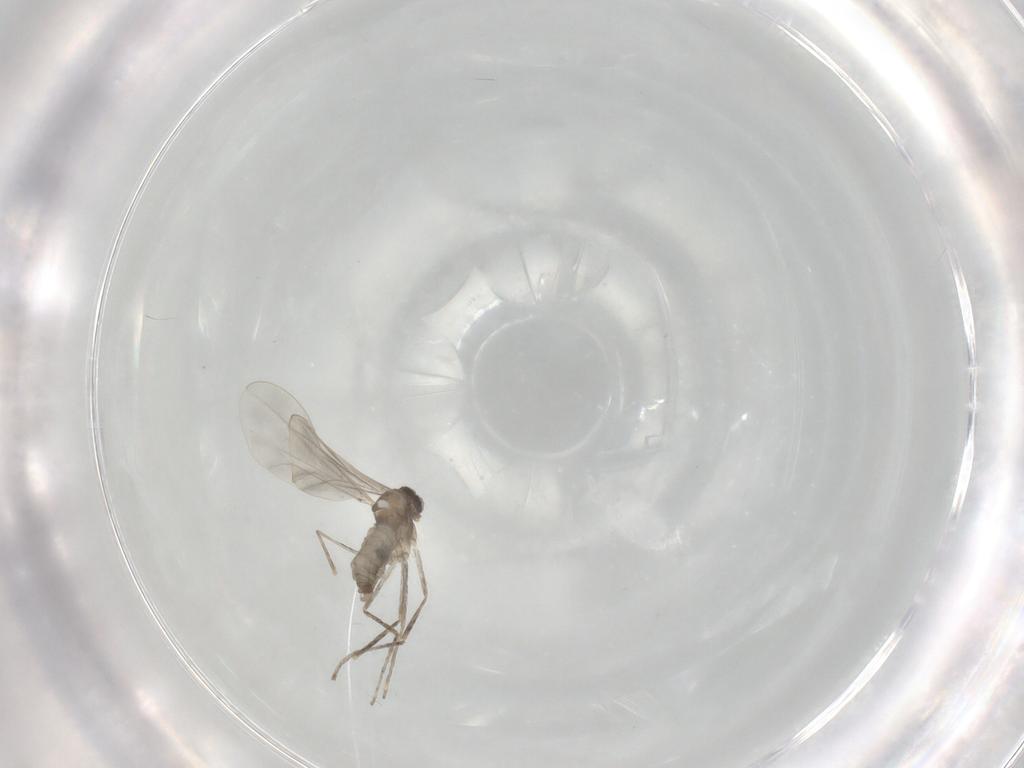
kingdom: Animalia
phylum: Arthropoda
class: Insecta
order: Diptera
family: Cecidomyiidae
